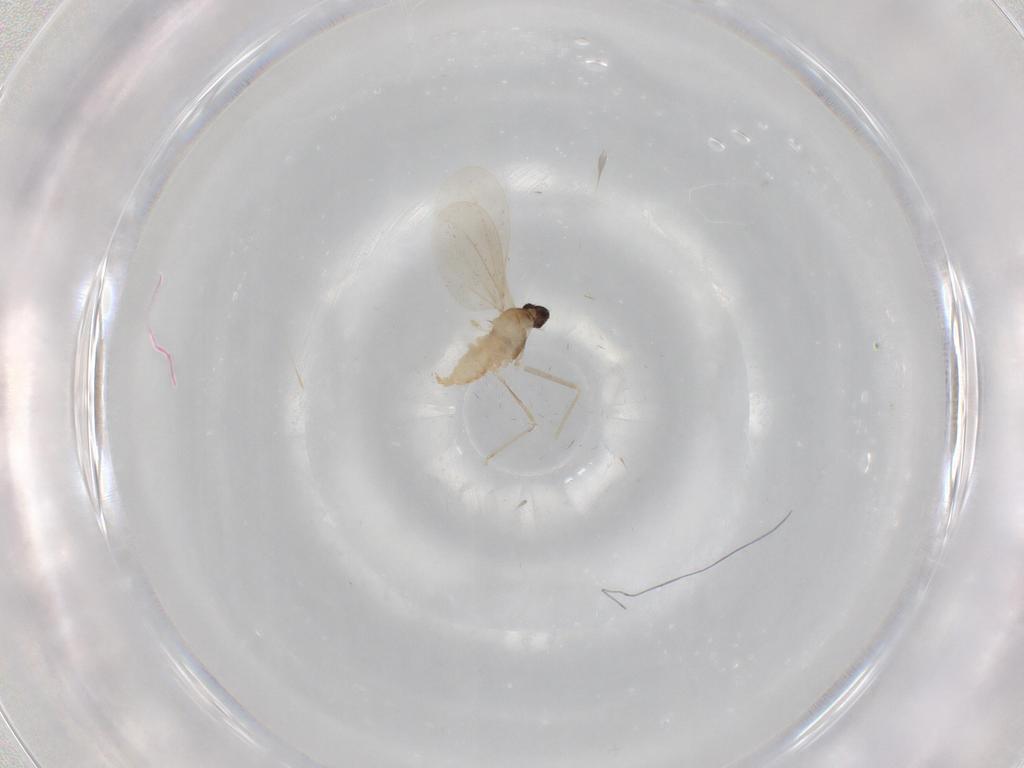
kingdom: Animalia
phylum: Arthropoda
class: Insecta
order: Diptera
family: Cecidomyiidae
